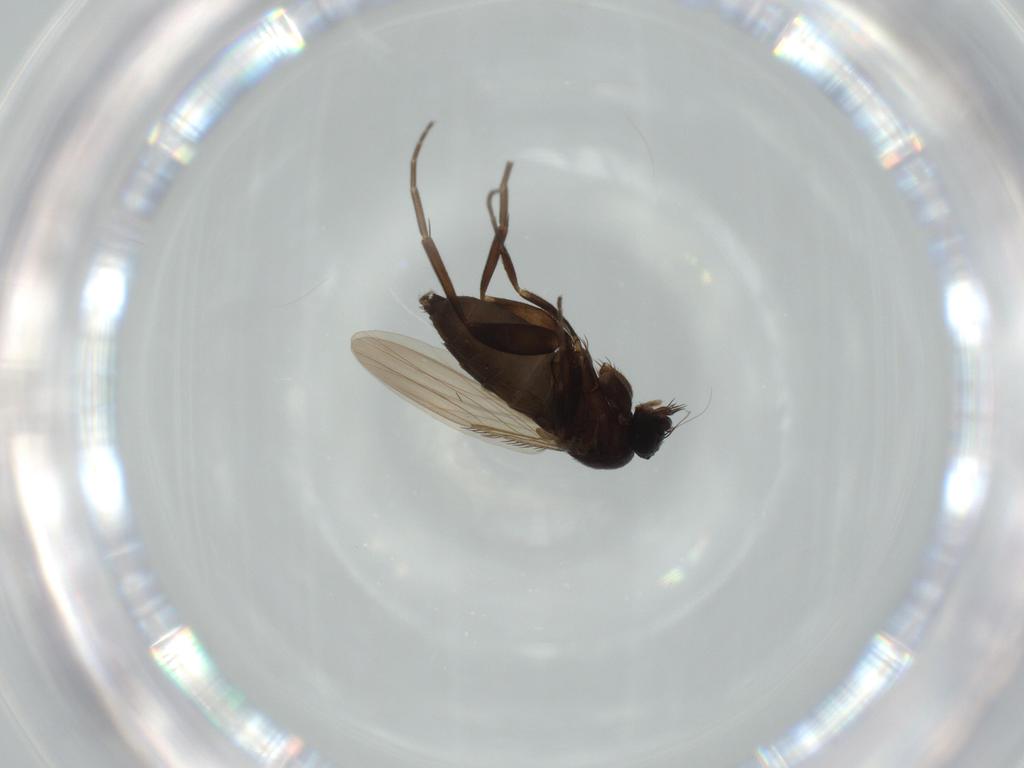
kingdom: Animalia
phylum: Arthropoda
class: Insecta
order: Diptera
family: Phoridae
